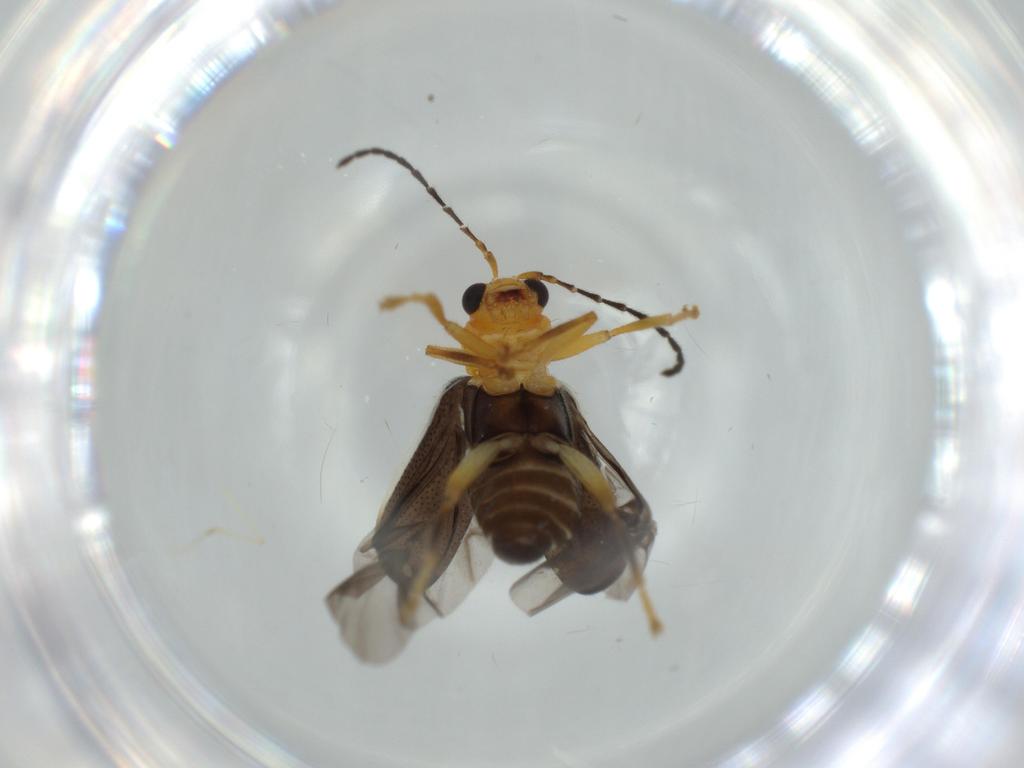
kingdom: Animalia
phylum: Arthropoda
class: Insecta
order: Coleoptera
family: Chrysomelidae
